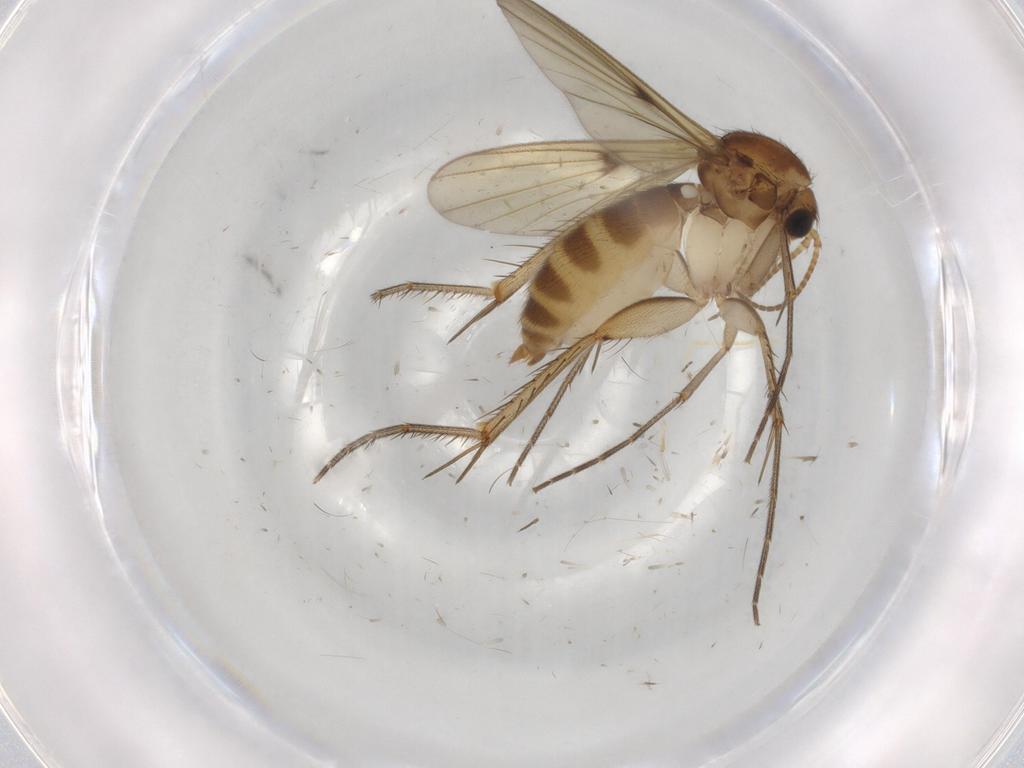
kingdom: Animalia
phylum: Arthropoda
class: Insecta
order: Diptera
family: Cecidomyiidae
